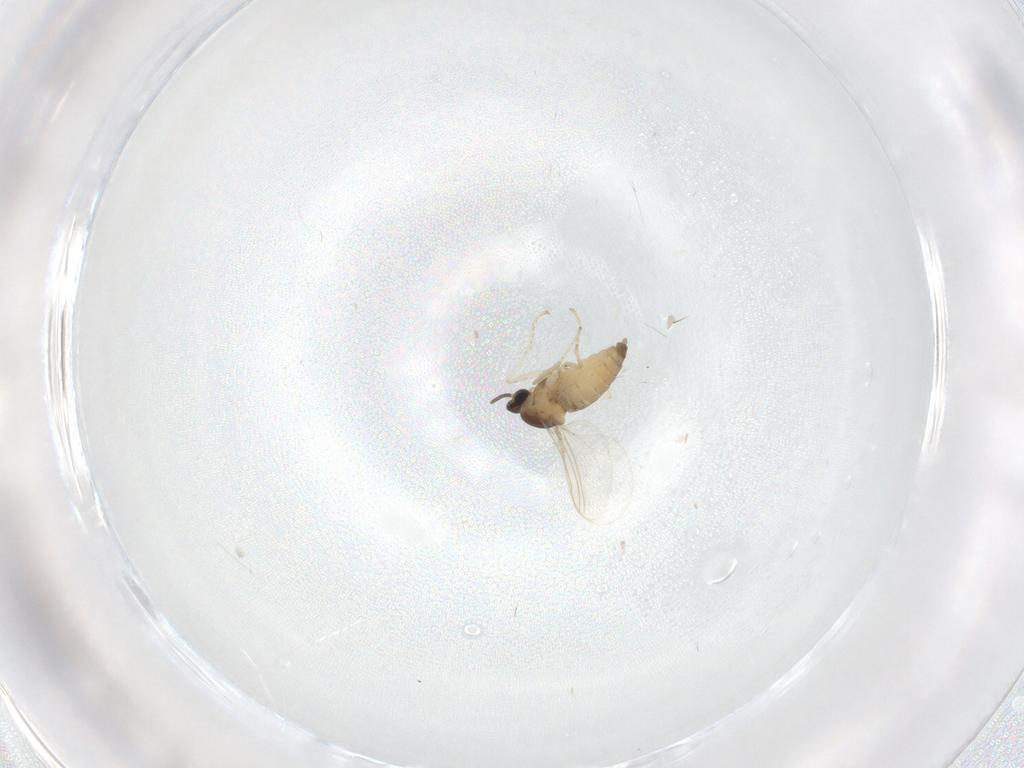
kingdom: Animalia
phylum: Arthropoda
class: Insecta
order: Diptera
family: Cecidomyiidae
